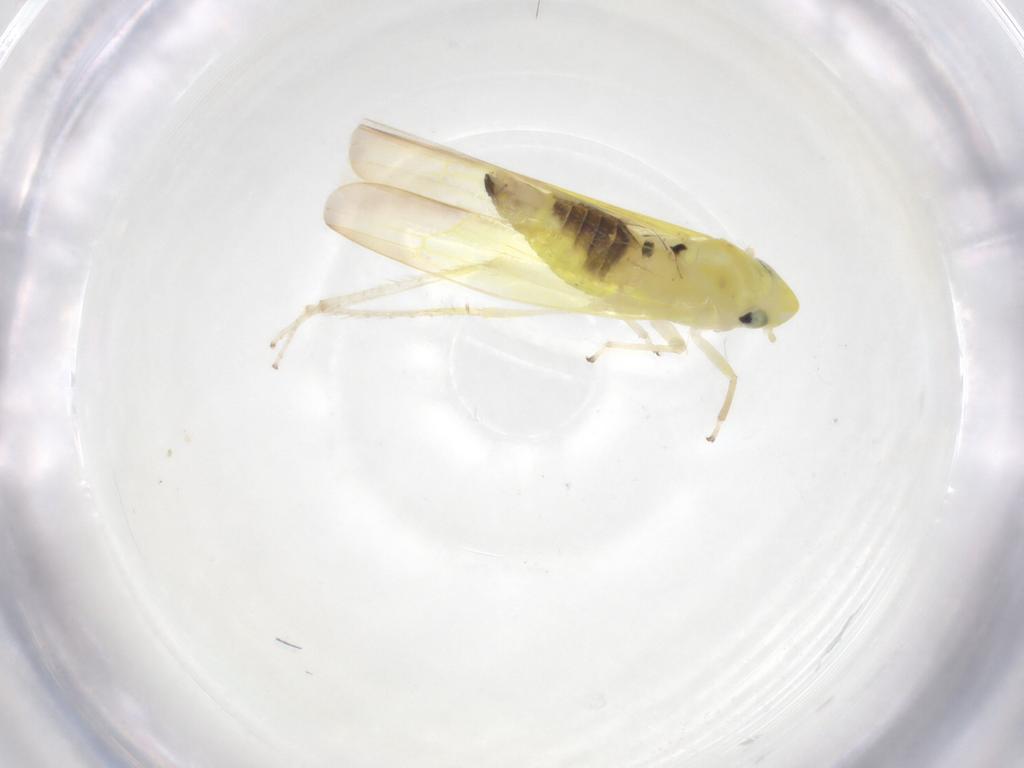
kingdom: Animalia
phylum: Arthropoda
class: Insecta
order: Hemiptera
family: Cicadellidae
